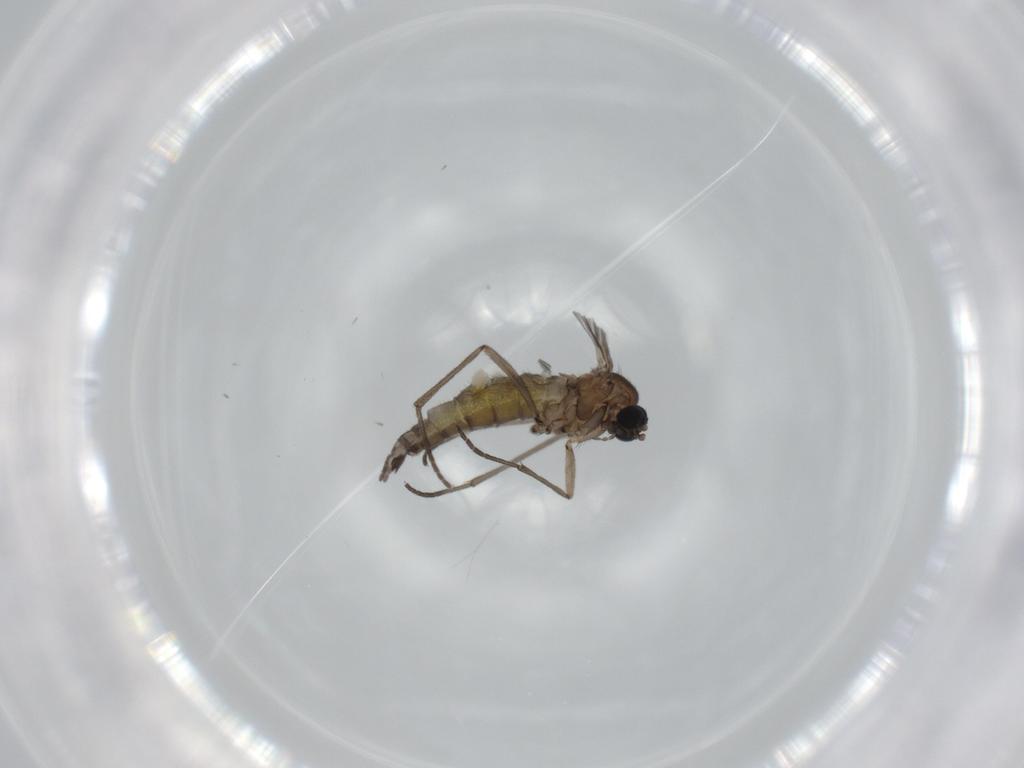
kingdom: Animalia
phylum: Arthropoda
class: Insecta
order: Diptera
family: Sciaridae
